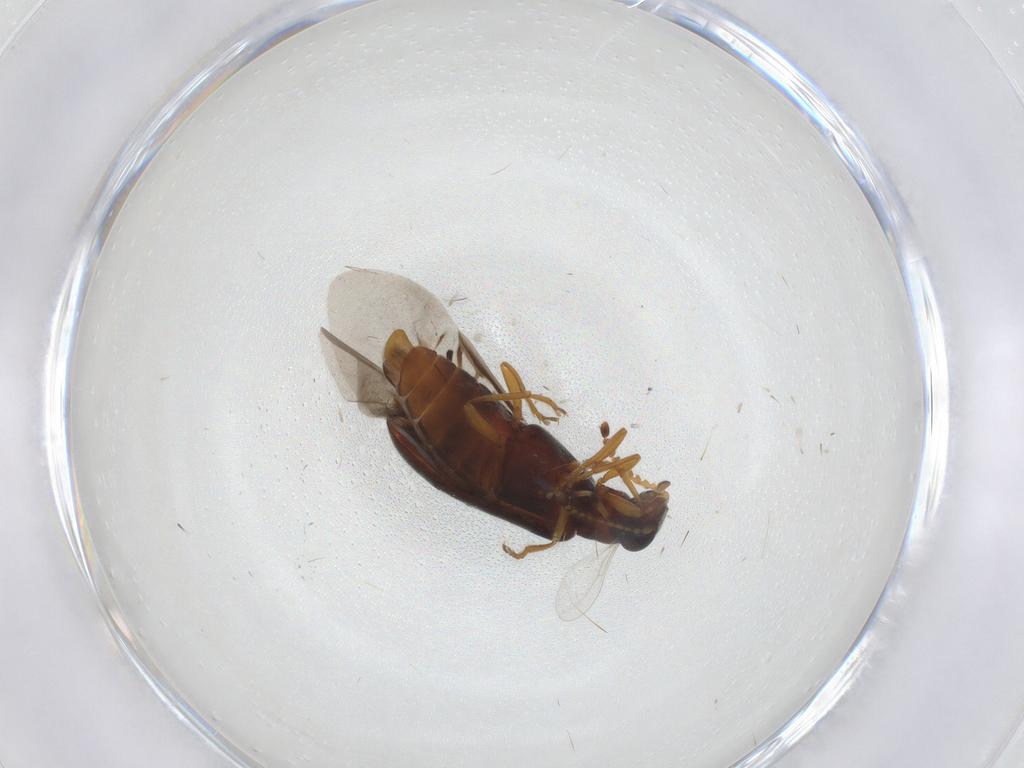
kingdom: Animalia
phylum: Arthropoda
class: Insecta
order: Coleoptera
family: Mycteridae
